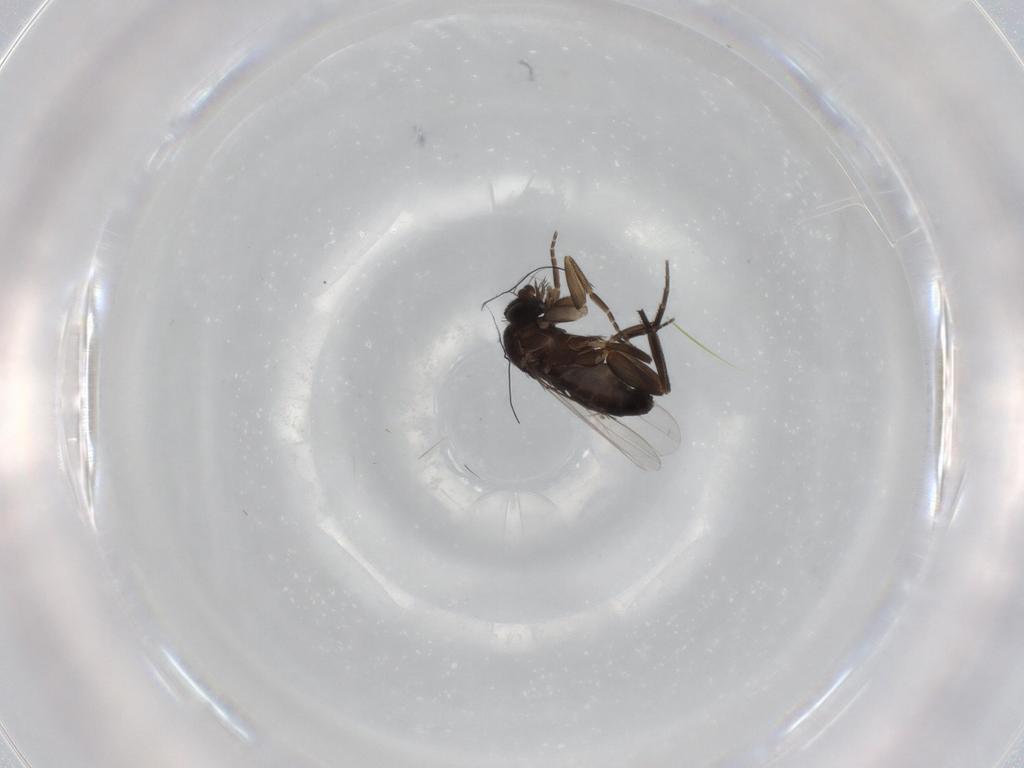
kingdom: Animalia
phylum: Arthropoda
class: Insecta
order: Diptera
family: Phoridae
